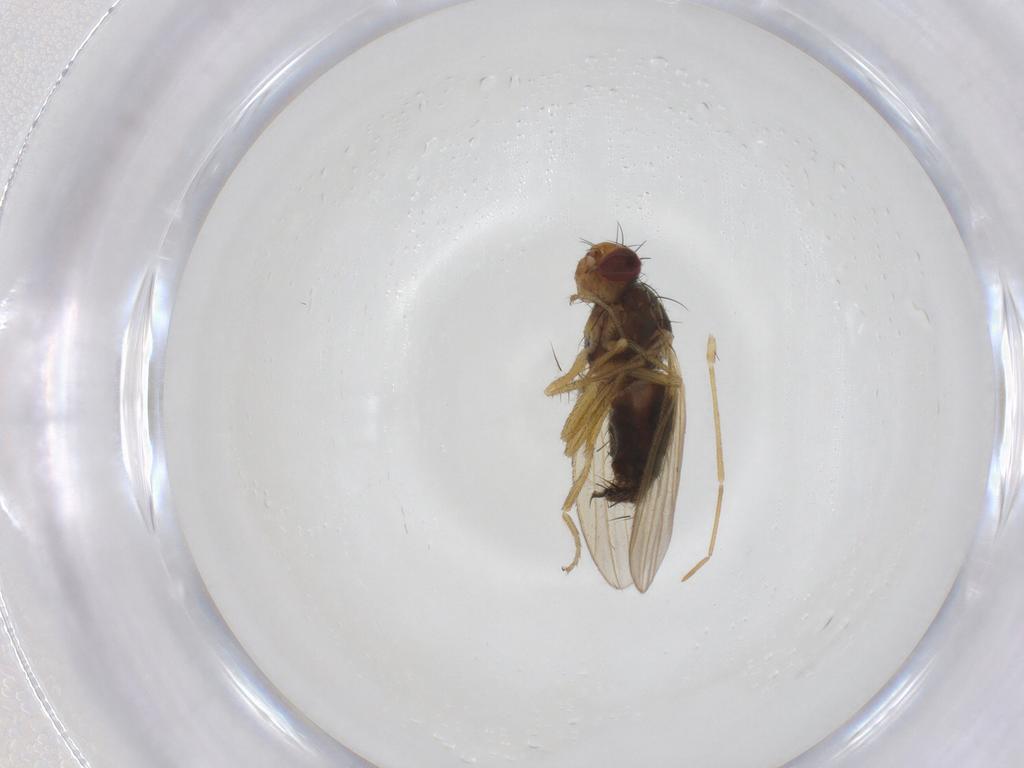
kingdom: Animalia
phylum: Arthropoda
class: Insecta
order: Diptera
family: Heleomyzidae
